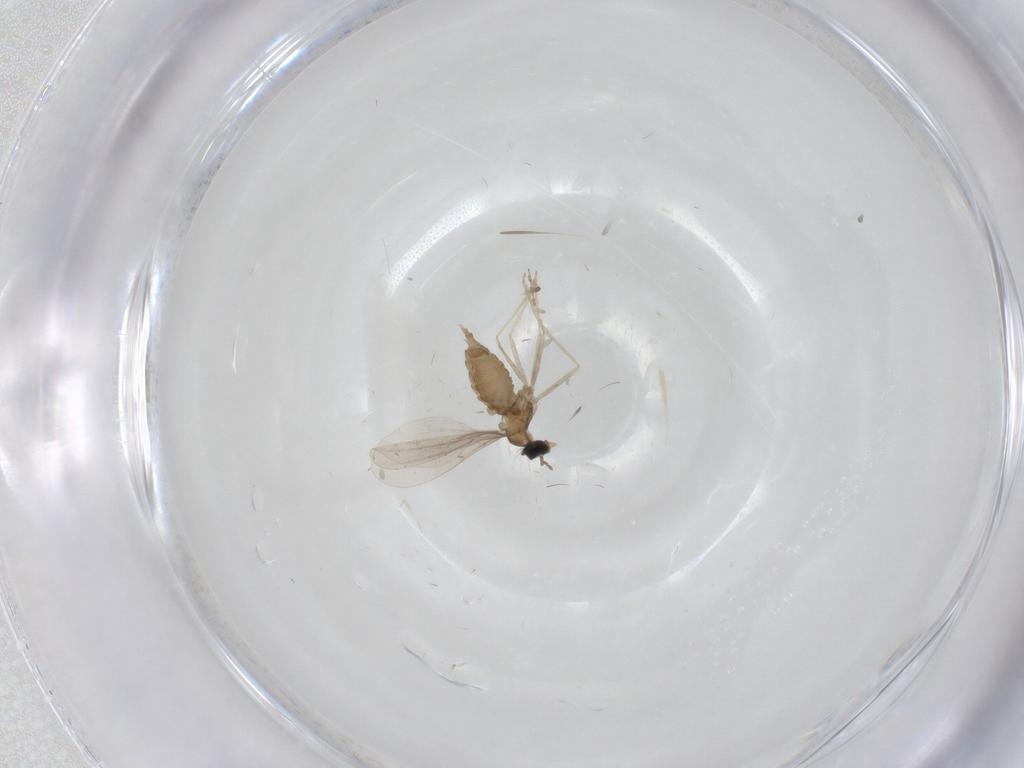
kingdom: Animalia
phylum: Arthropoda
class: Insecta
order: Diptera
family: Cecidomyiidae
